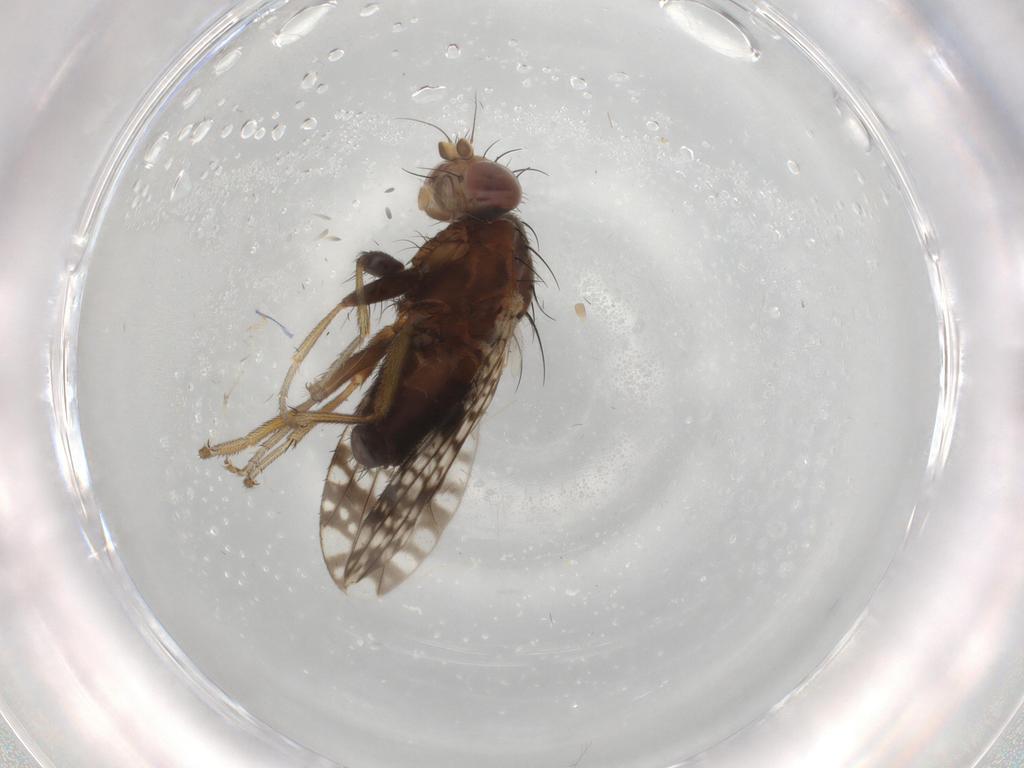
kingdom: Animalia
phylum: Arthropoda
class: Insecta
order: Diptera
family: Tephritidae
